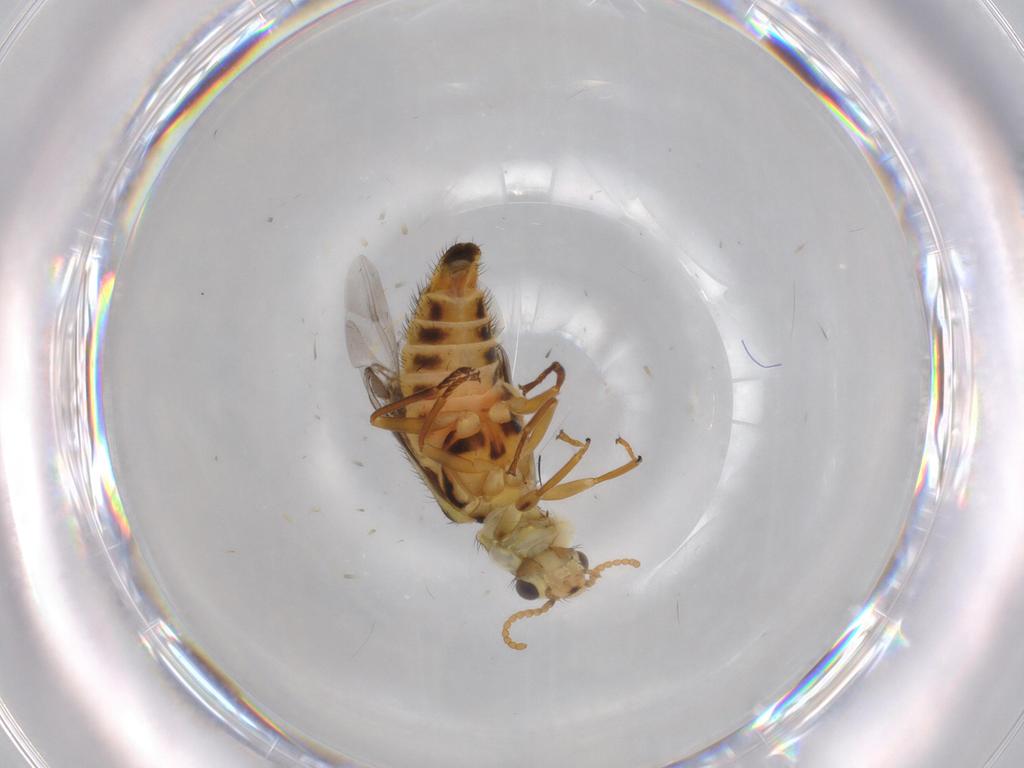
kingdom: Animalia
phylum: Arthropoda
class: Insecta
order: Coleoptera
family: Melyridae
